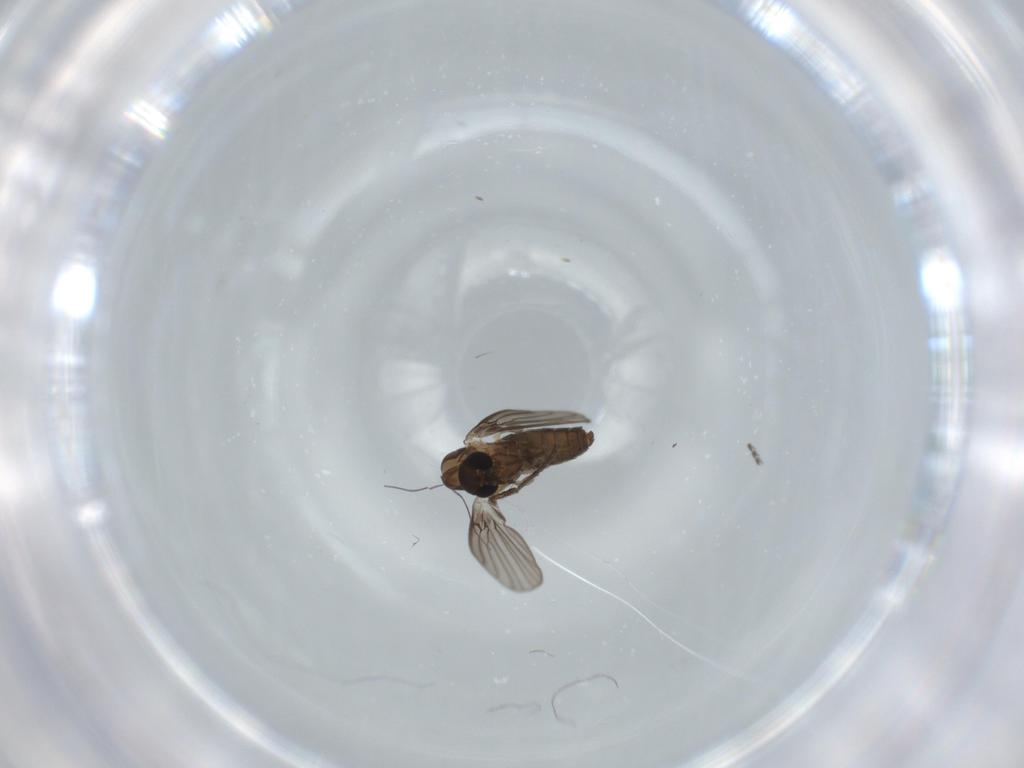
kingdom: Animalia
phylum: Arthropoda
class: Insecta
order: Diptera
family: Psychodidae
